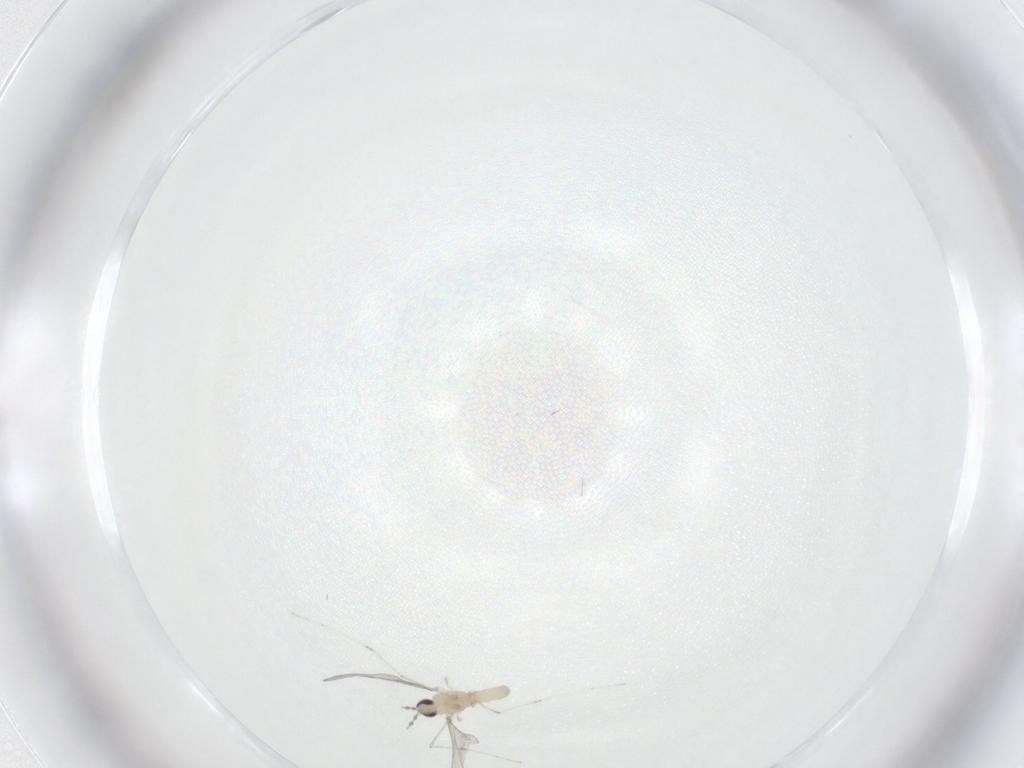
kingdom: Animalia
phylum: Arthropoda
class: Insecta
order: Diptera
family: Cecidomyiidae
